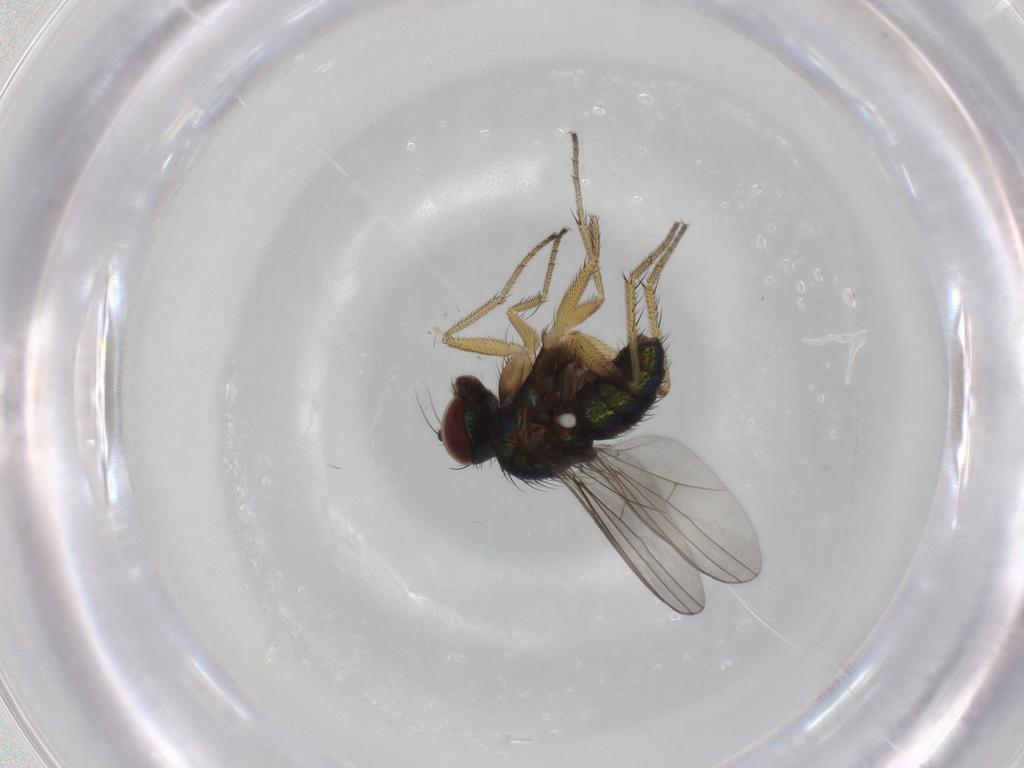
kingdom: Animalia
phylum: Arthropoda
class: Insecta
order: Diptera
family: Dolichopodidae
